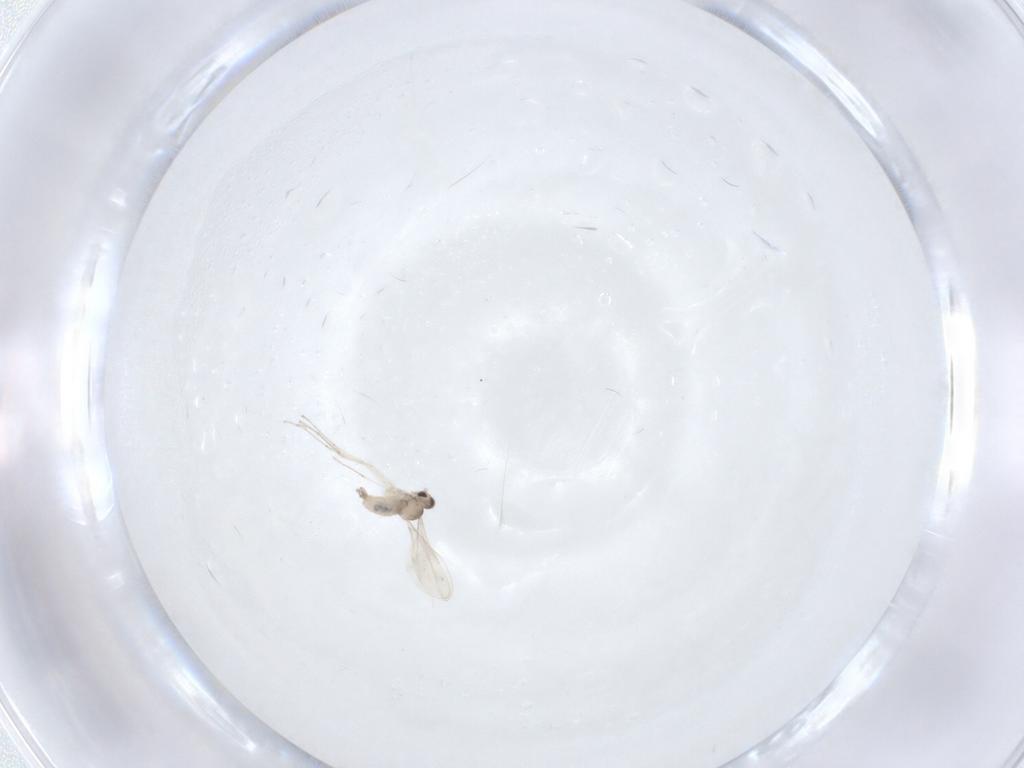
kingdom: Animalia
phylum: Arthropoda
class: Insecta
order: Diptera
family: Cecidomyiidae
